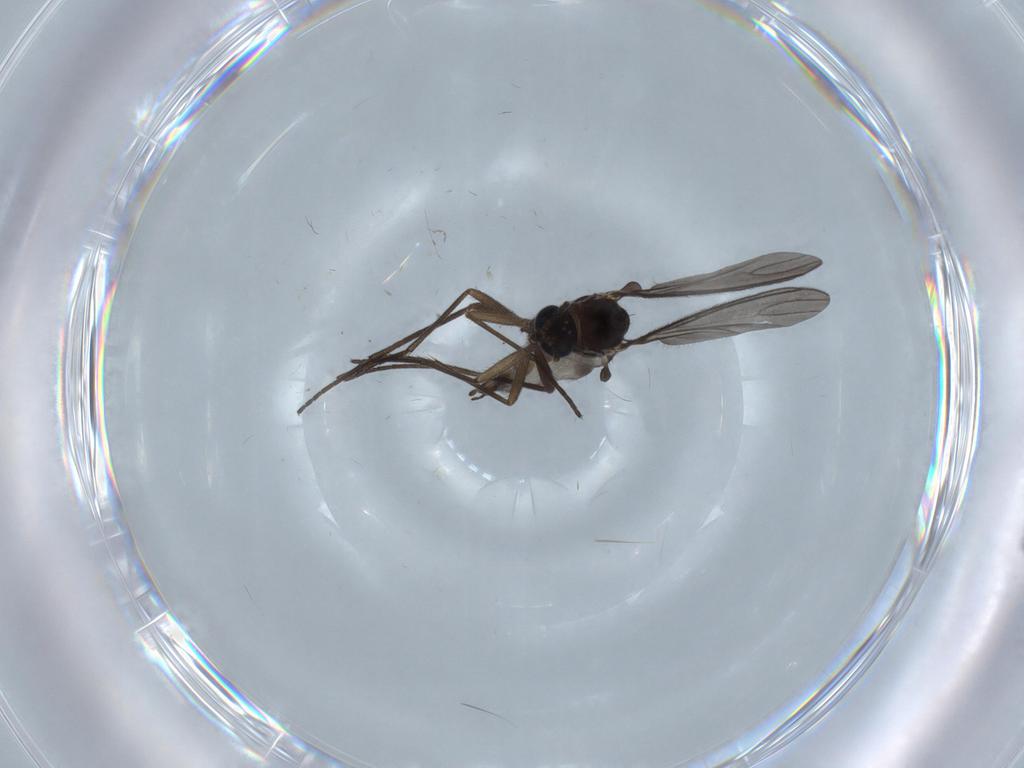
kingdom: Animalia
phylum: Arthropoda
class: Insecta
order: Diptera
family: Sciaridae
